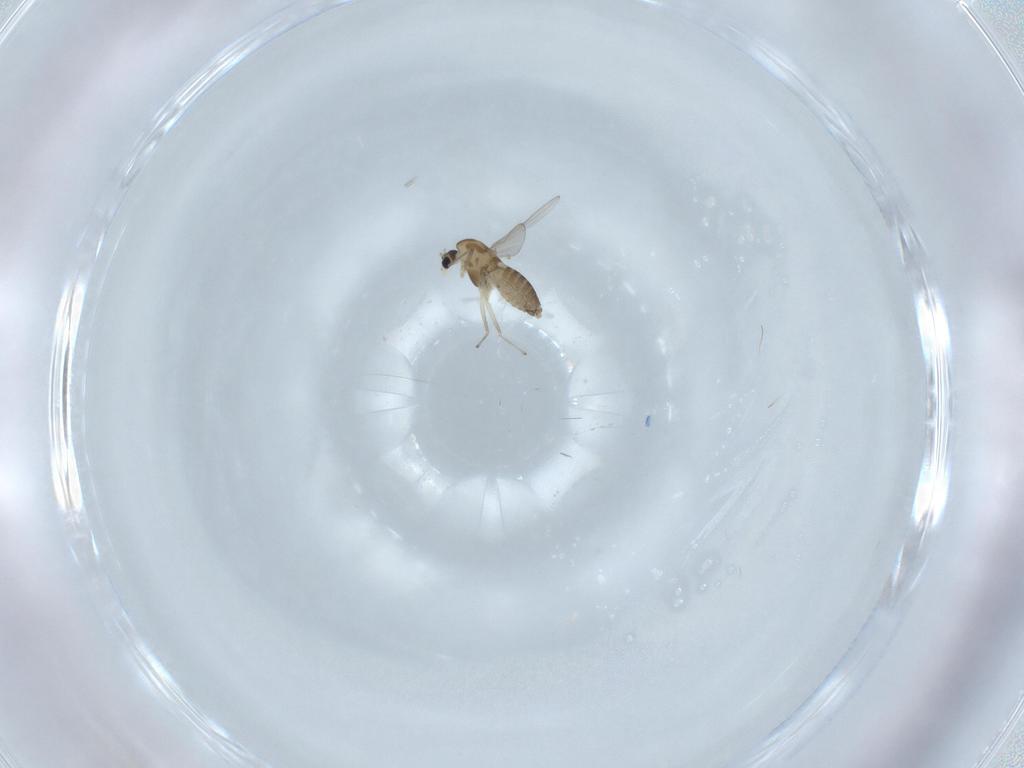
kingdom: Animalia
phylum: Arthropoda
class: Insecta
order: Diptera
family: Chironomidae
